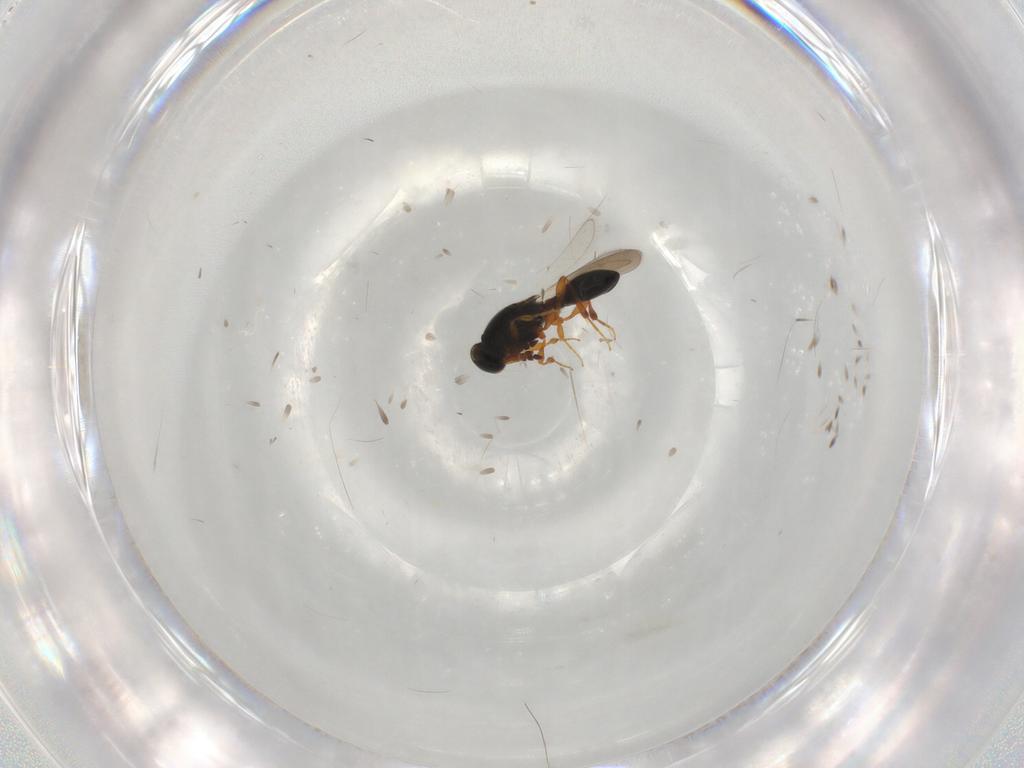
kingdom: Animalia
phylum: Arthropoda
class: Insecta
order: Hymenoptera
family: Platygastridae
